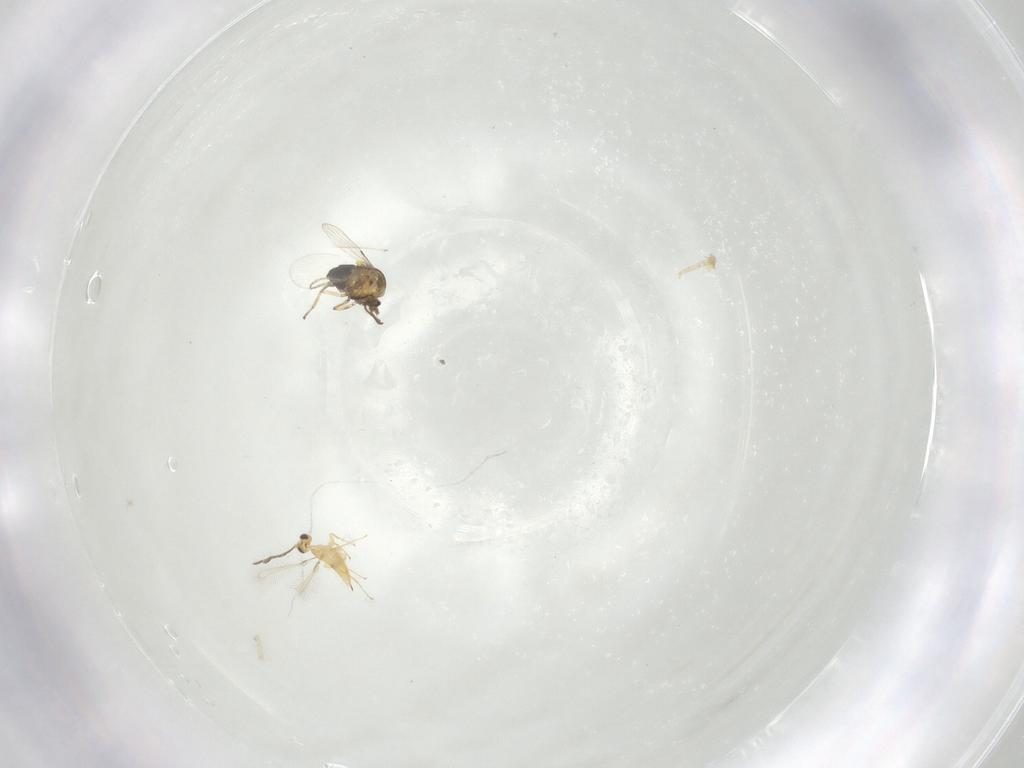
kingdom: Animalia
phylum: Arthropoda
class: Insecta
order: Hymenoptera
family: Mymaridae
